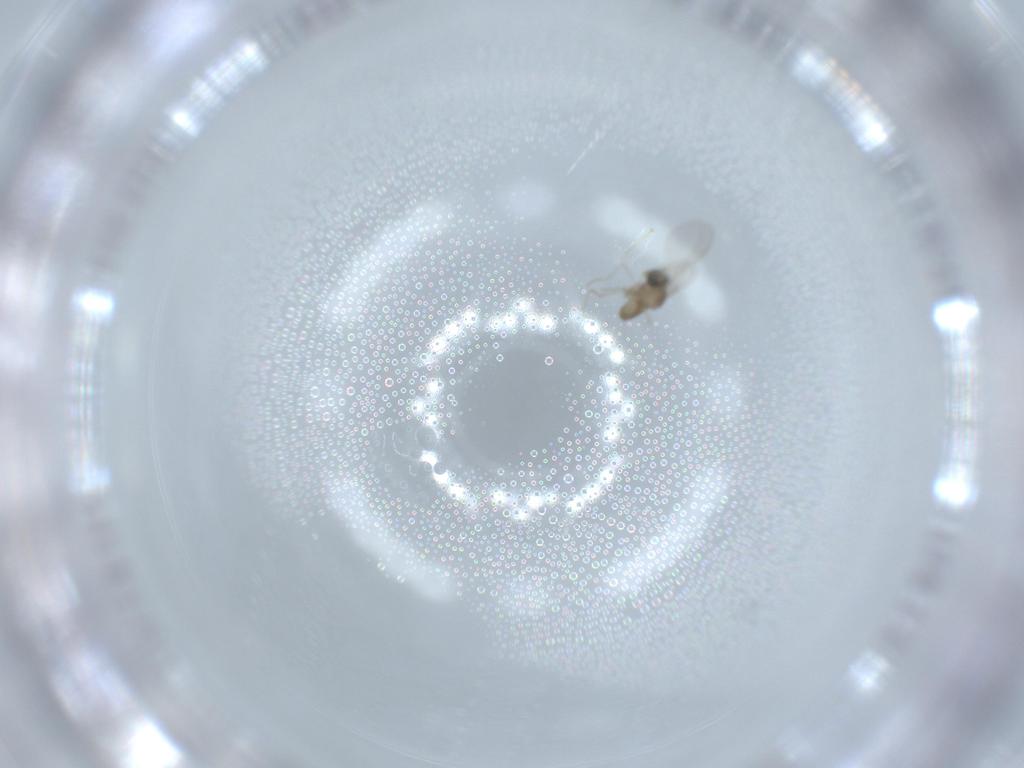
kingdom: Animalia
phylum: Arthropoda
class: Insecta
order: Diptera
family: Cecidomyiidae
